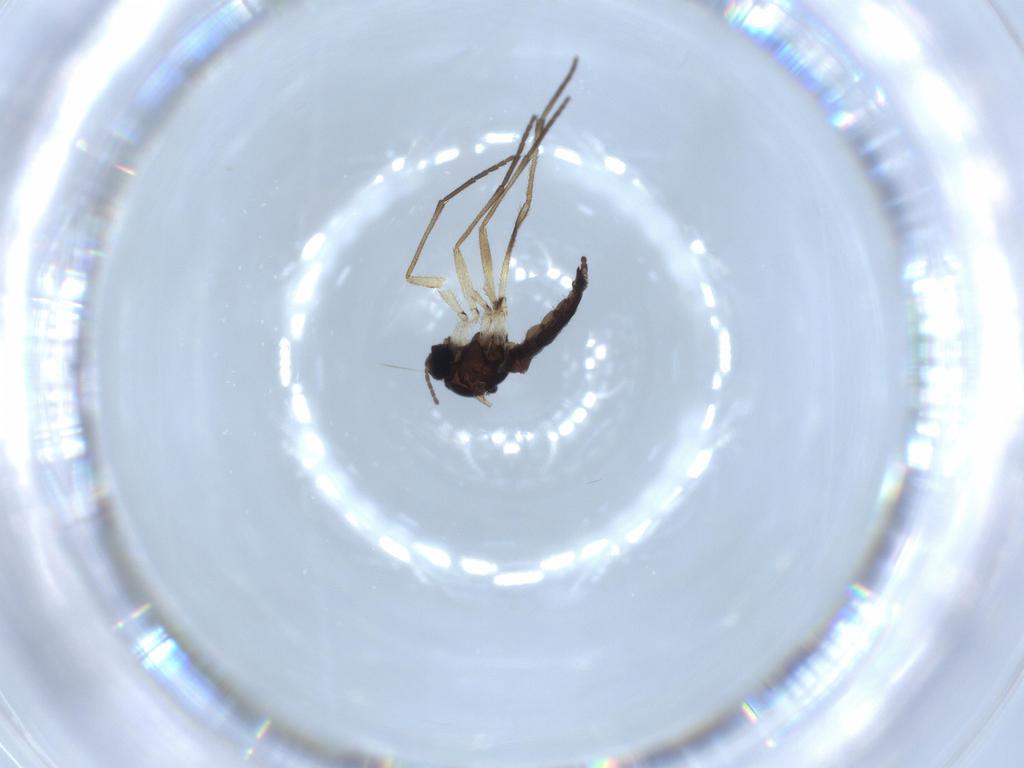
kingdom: Animalia
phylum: Arthropoda
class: Insecta
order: Diptera
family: Sciaridae
